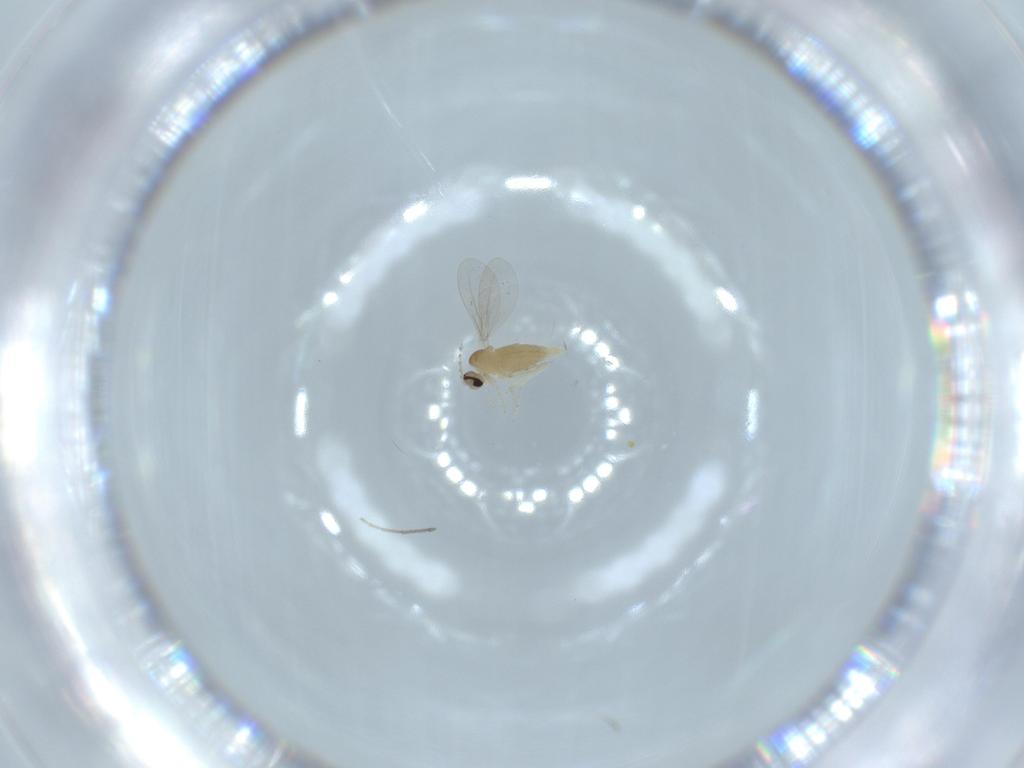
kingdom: Animalia
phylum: Arthropoda
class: Insecta
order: Diptera
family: Cecidomyiidae
